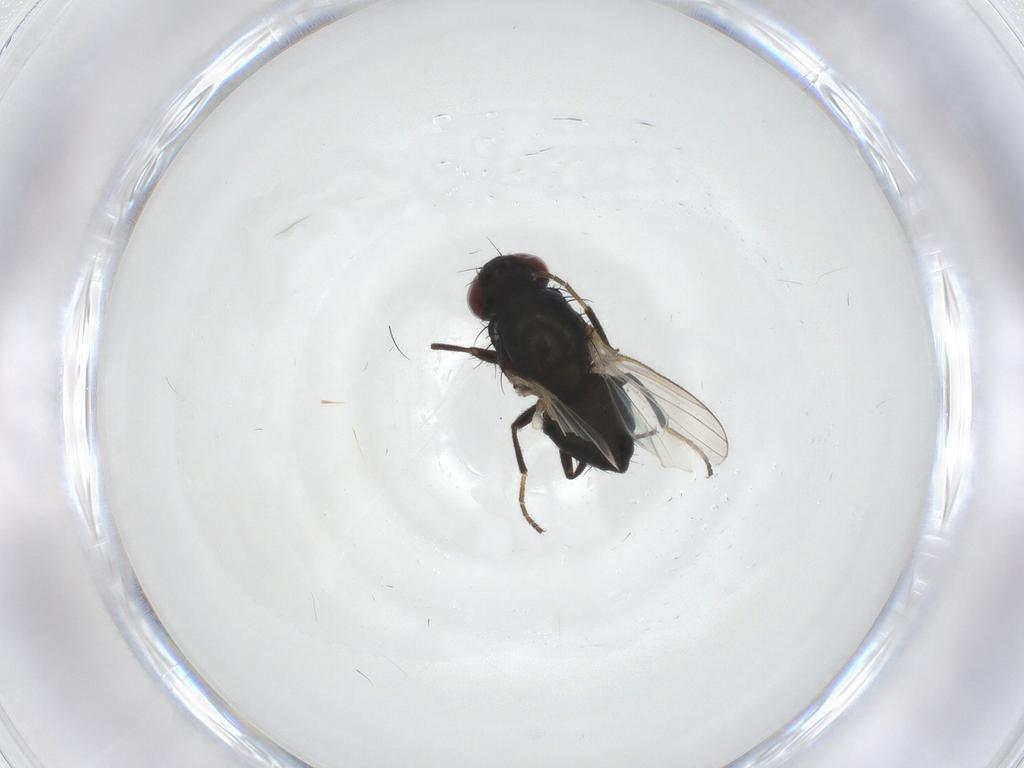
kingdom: Animalia
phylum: Arthropoda
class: Insecta
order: Diptera
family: Carnidae
